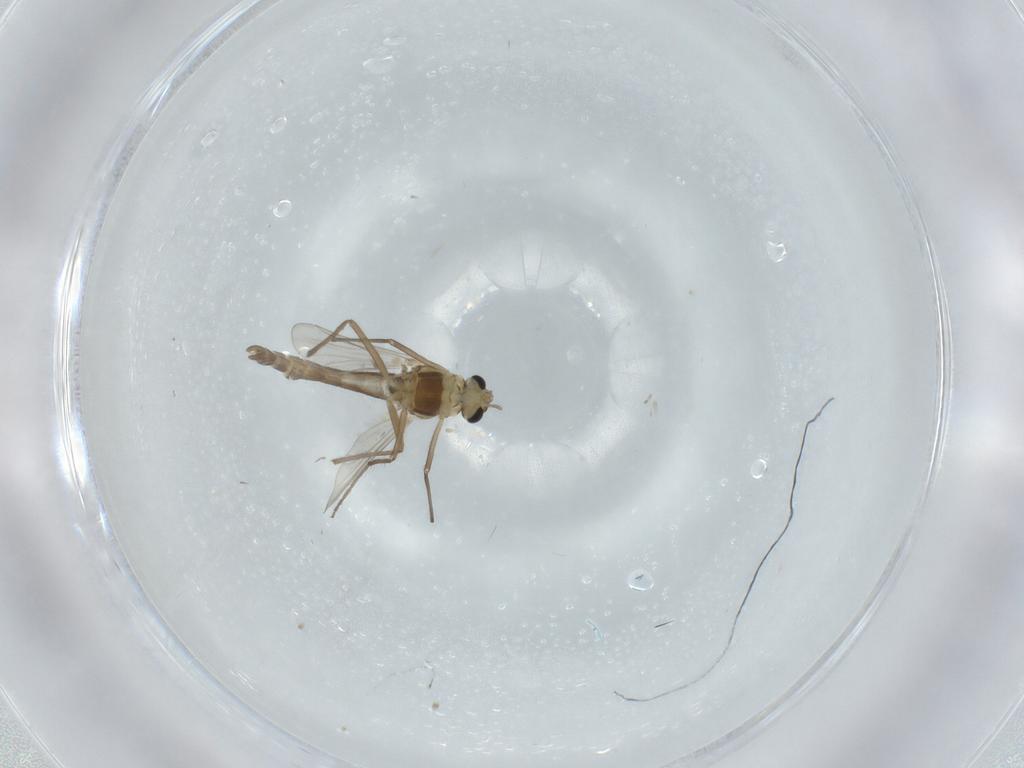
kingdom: Animalia
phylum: Arthropoda
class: Insecta
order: Diptera
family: Chironomidae
